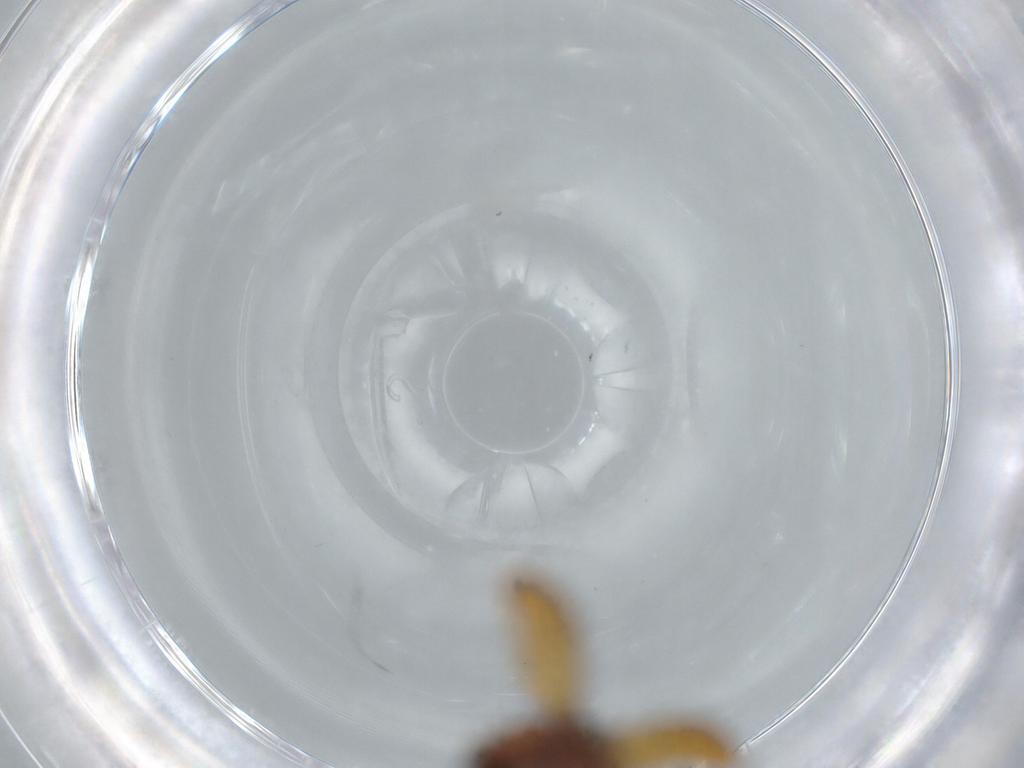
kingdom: Animalia
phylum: Arthropoda
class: Insecta
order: Coleoptera
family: Curculionidae
